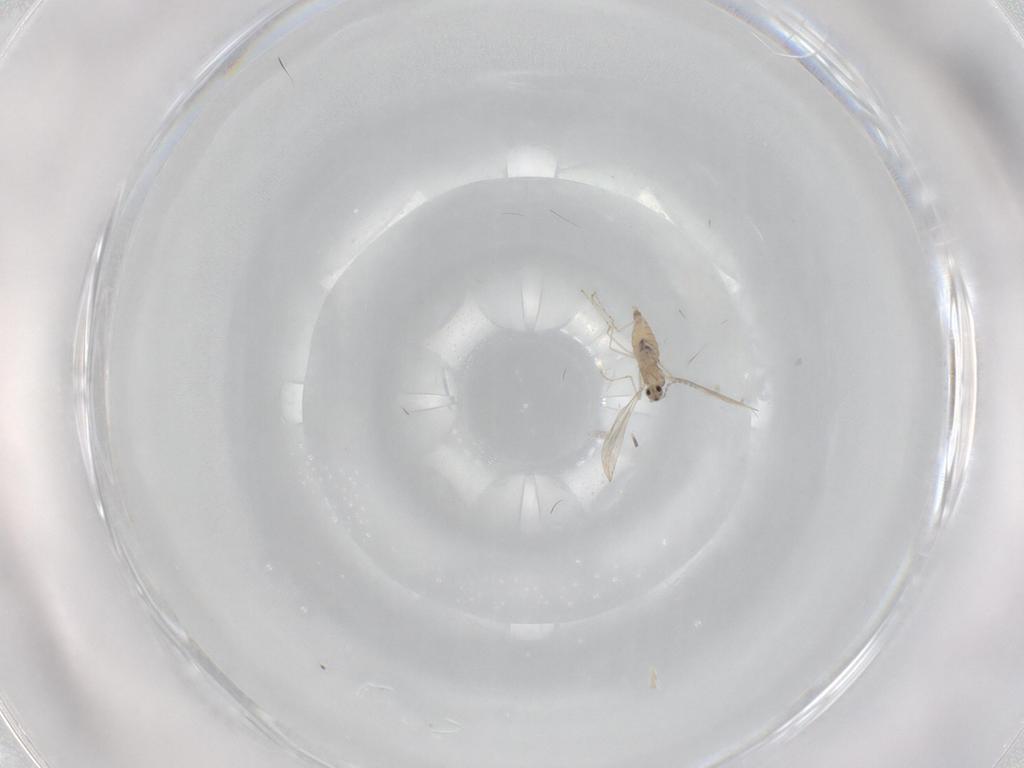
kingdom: Animalia
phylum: Arthropoda
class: Insecta
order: Diptera
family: Cecidomyiidae
